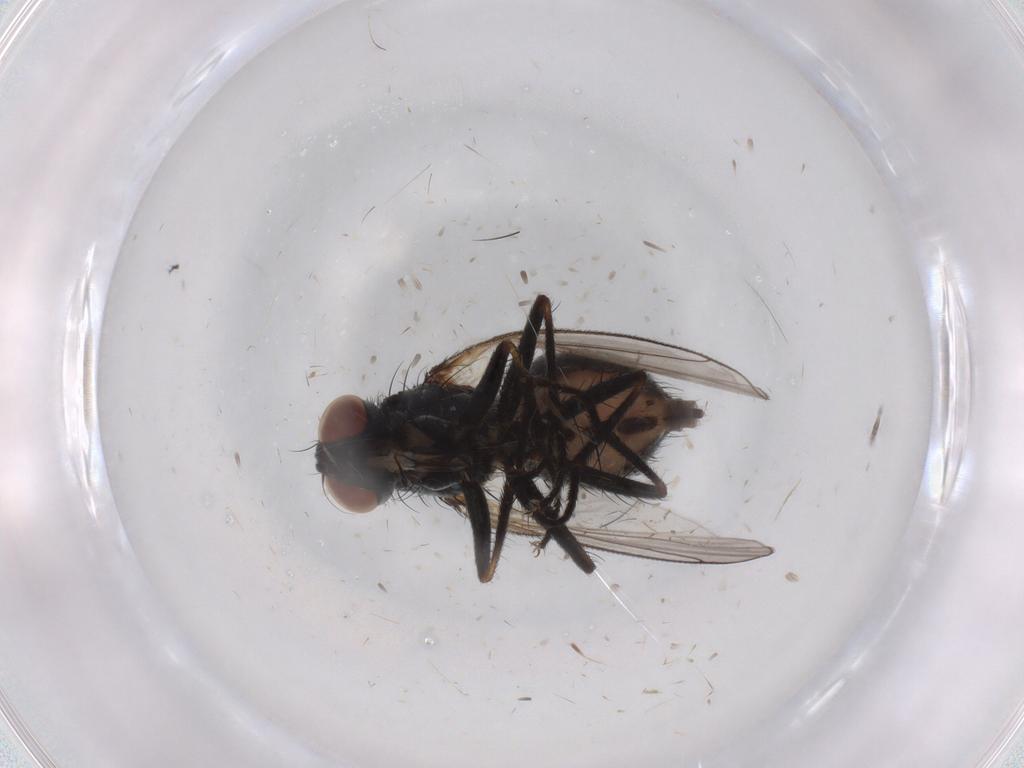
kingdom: Animalia
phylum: Arthropoda
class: Insecta
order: Diptera
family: Muscidae
